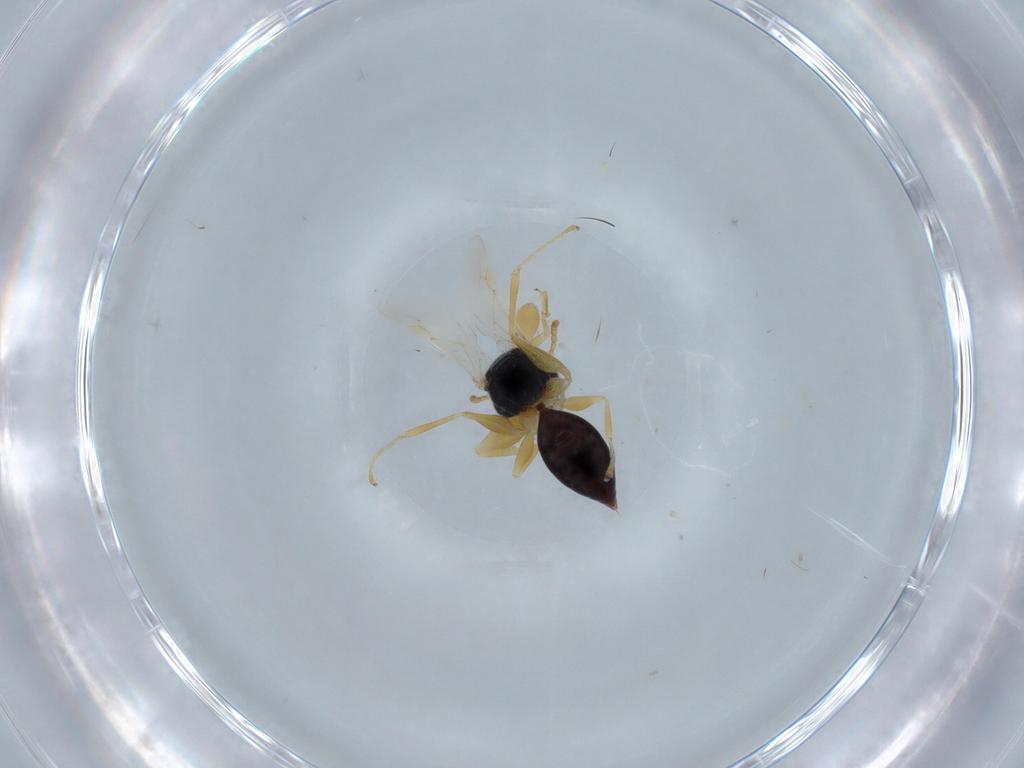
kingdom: Animalia
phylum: Arthropoda
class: Insecta
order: Hymenoptera
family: Dryinidae
